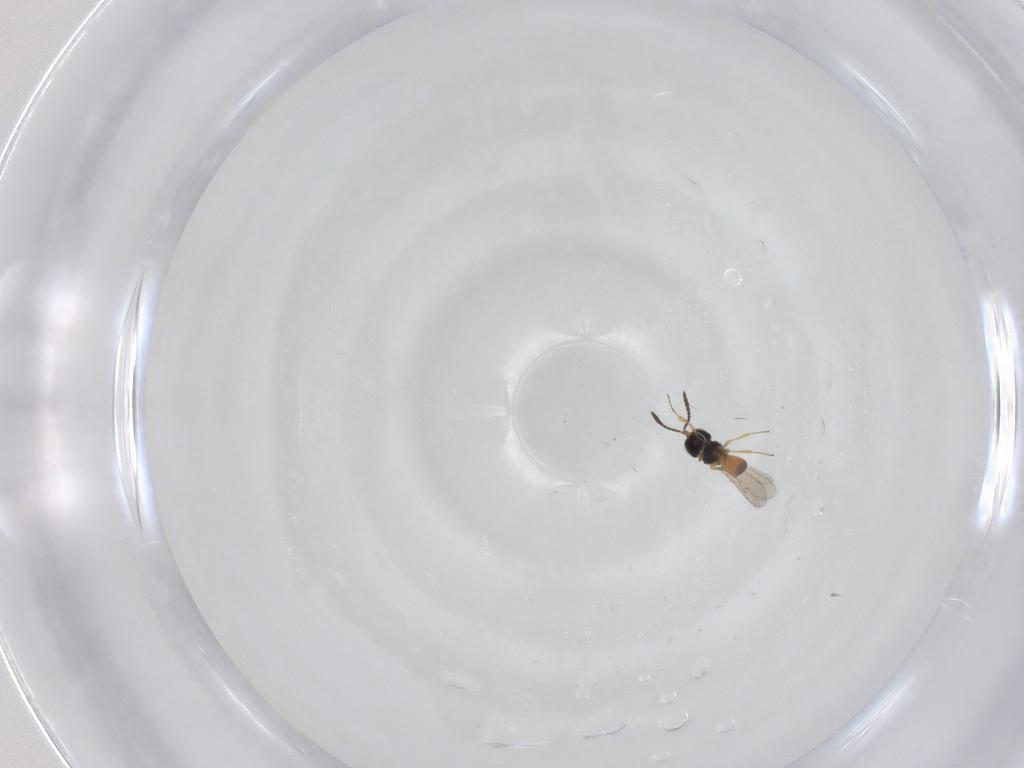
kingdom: Animalia
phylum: Arthropoda
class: Insecta
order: Hymenoptera
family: Scelionidae
